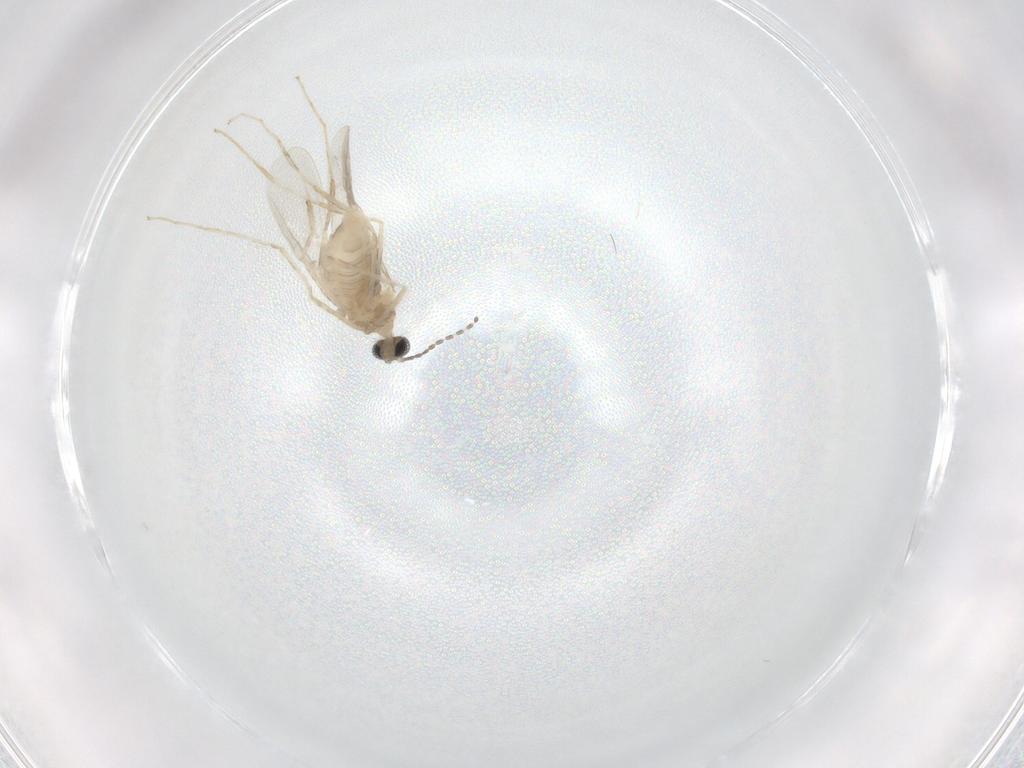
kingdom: Animalia
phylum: Arthropoda
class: Insecta
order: Diptera
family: Cecidomyiidae
